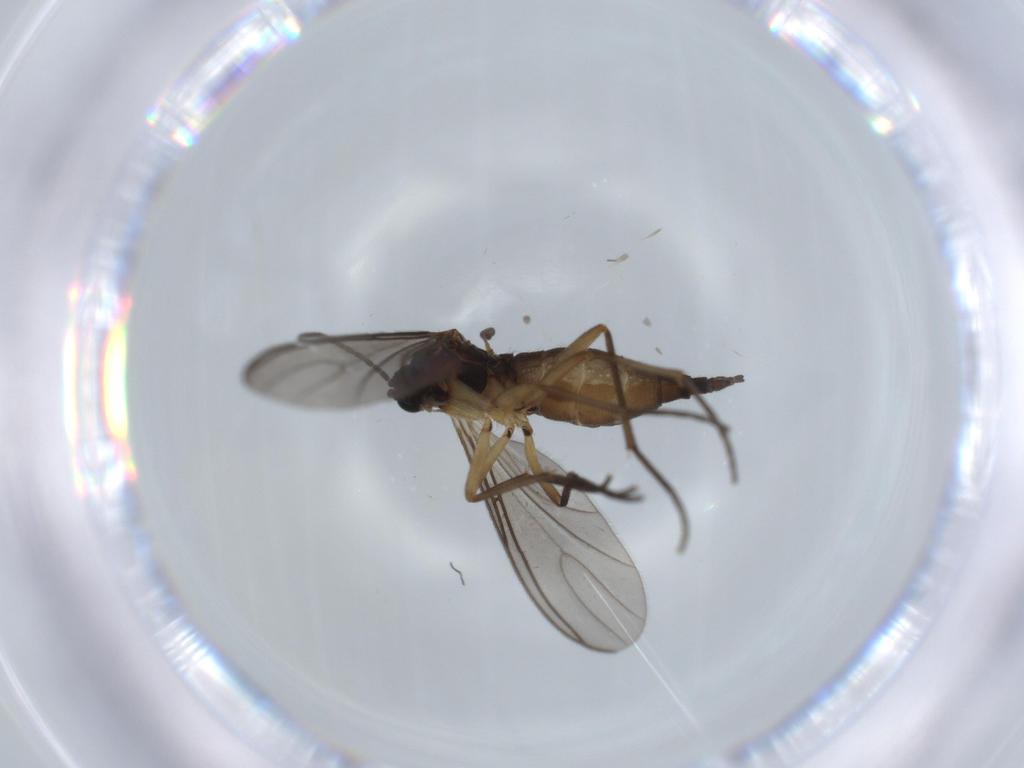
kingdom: Animalia
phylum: Arthropoda
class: Insecta
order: Diptera
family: Sciaridae
